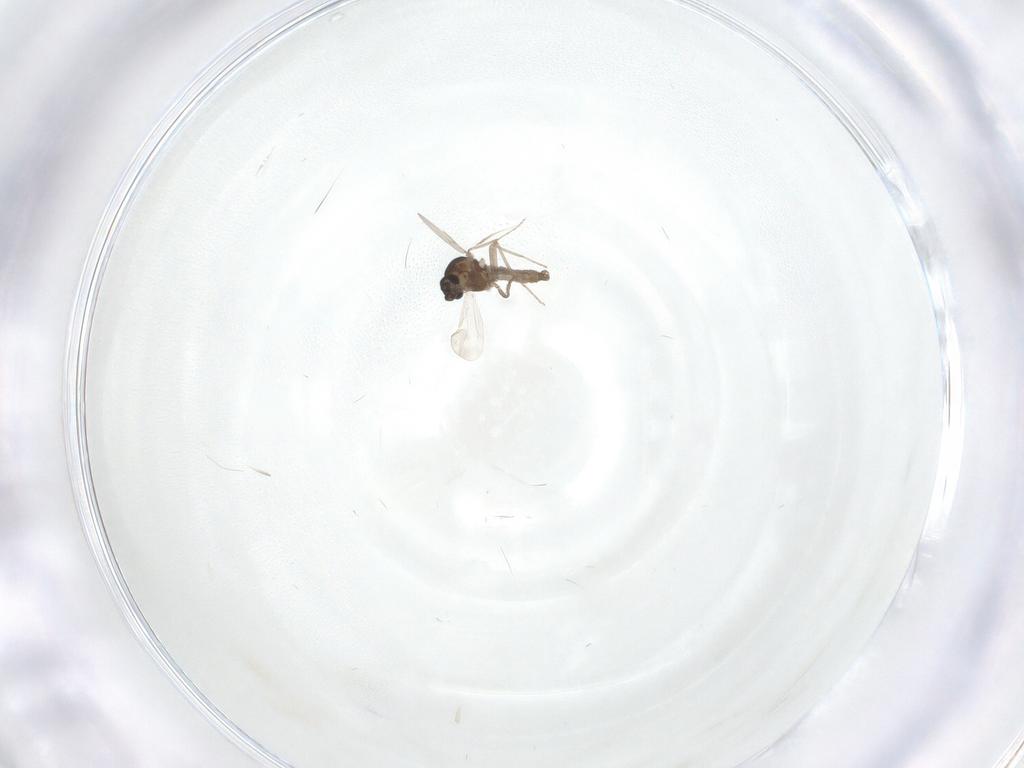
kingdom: Animalia
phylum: Arthropoda
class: Insecta
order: Diptera
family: Ceratopogonidae
